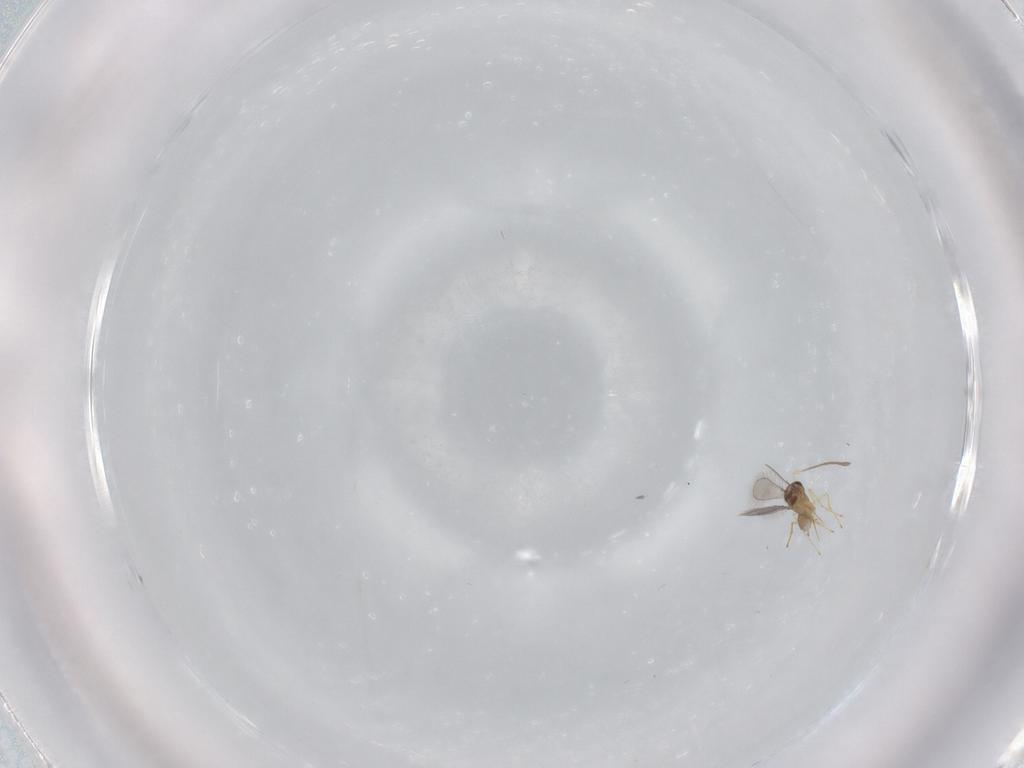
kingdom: Animalia
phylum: Arthropoda
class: Insecta
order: Hymenoptera
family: Mymaridae
